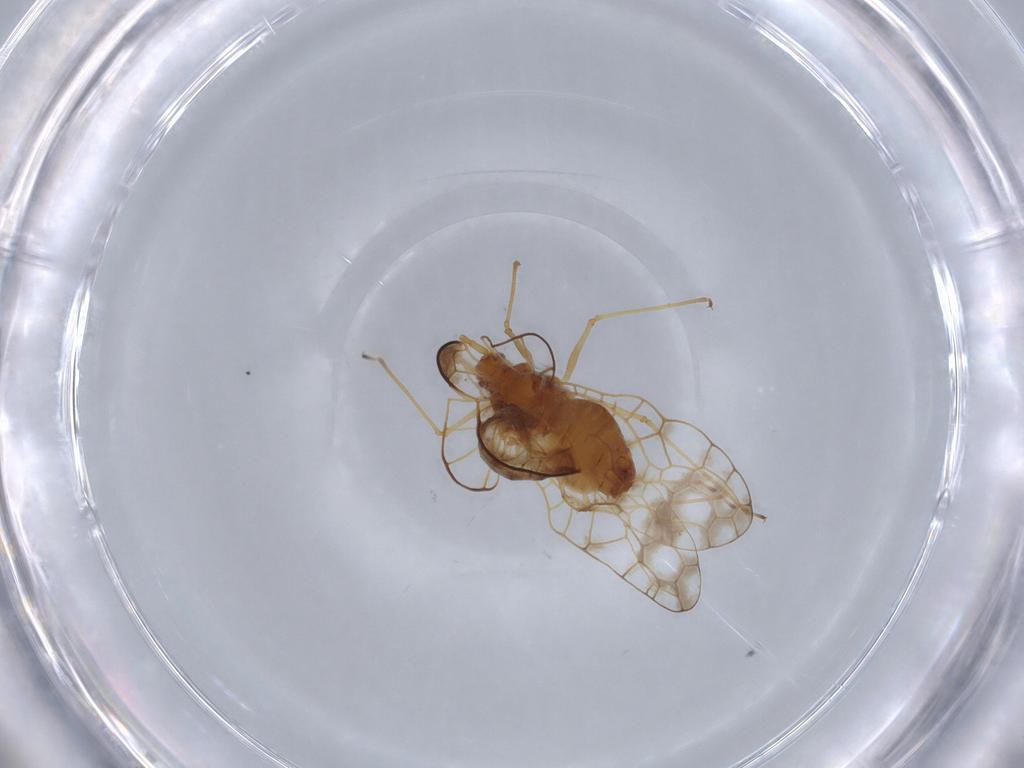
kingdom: Animalia
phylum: Arthropoda
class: Insecta
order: Hemiptera
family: Tingidae
